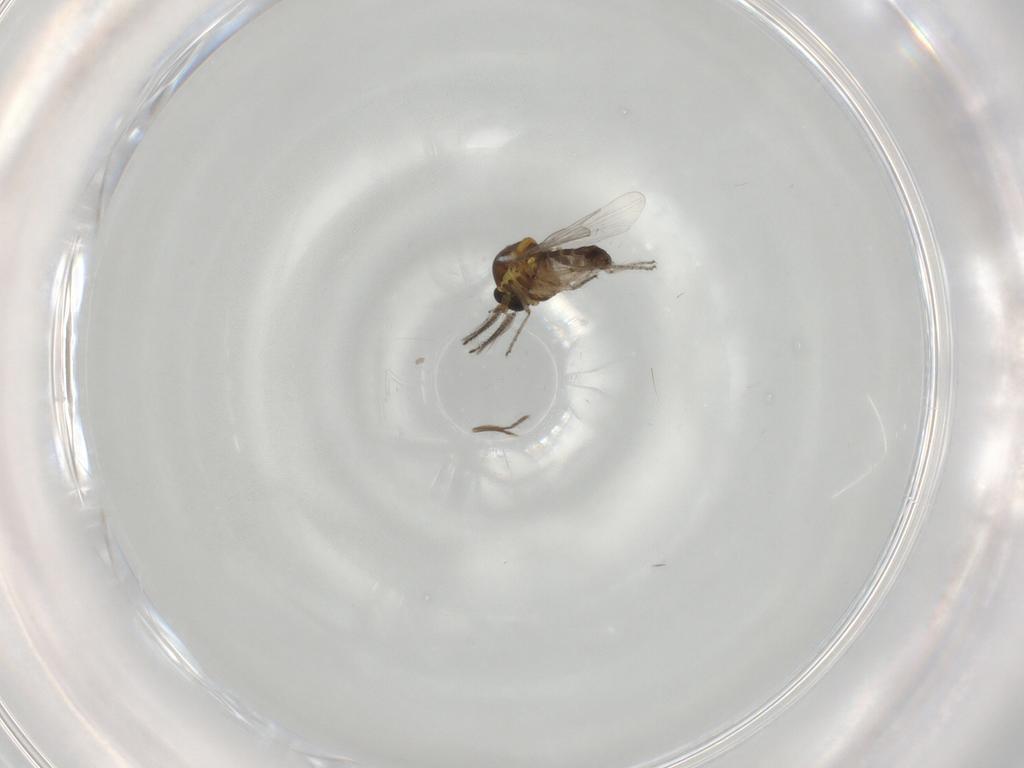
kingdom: Animalia
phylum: Arthropoda
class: Insecta
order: Diptera
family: Ceratopogonidae
